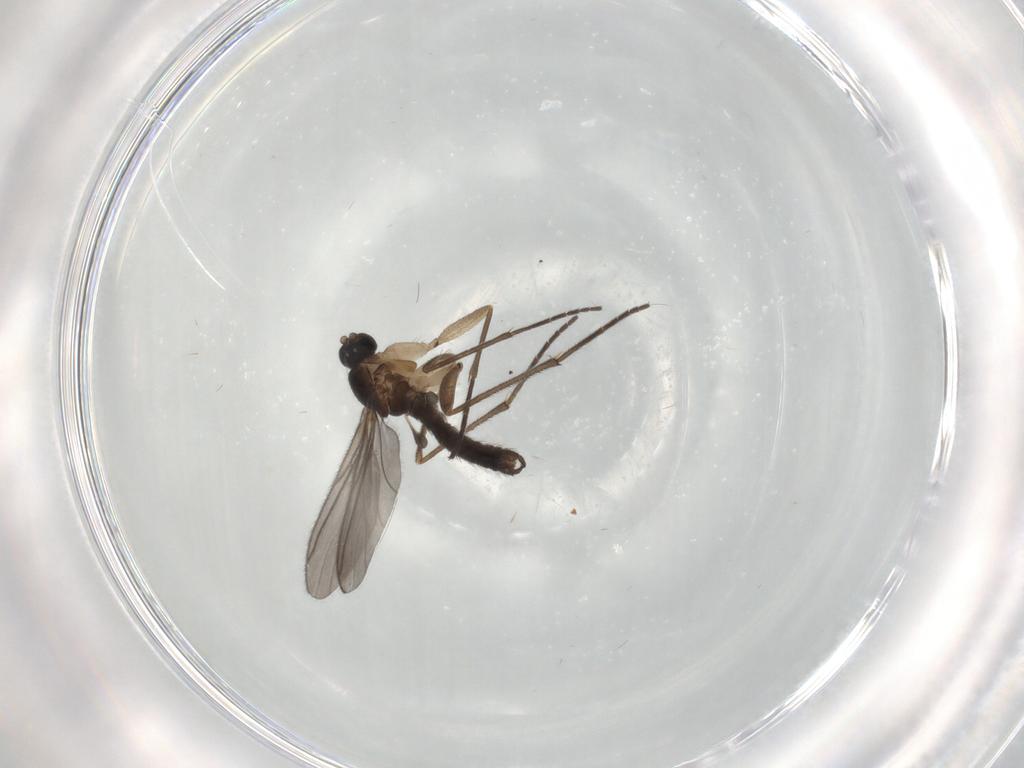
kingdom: Animalia
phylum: Arthropoda
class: Insecta
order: Diptera
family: Sciaridae
